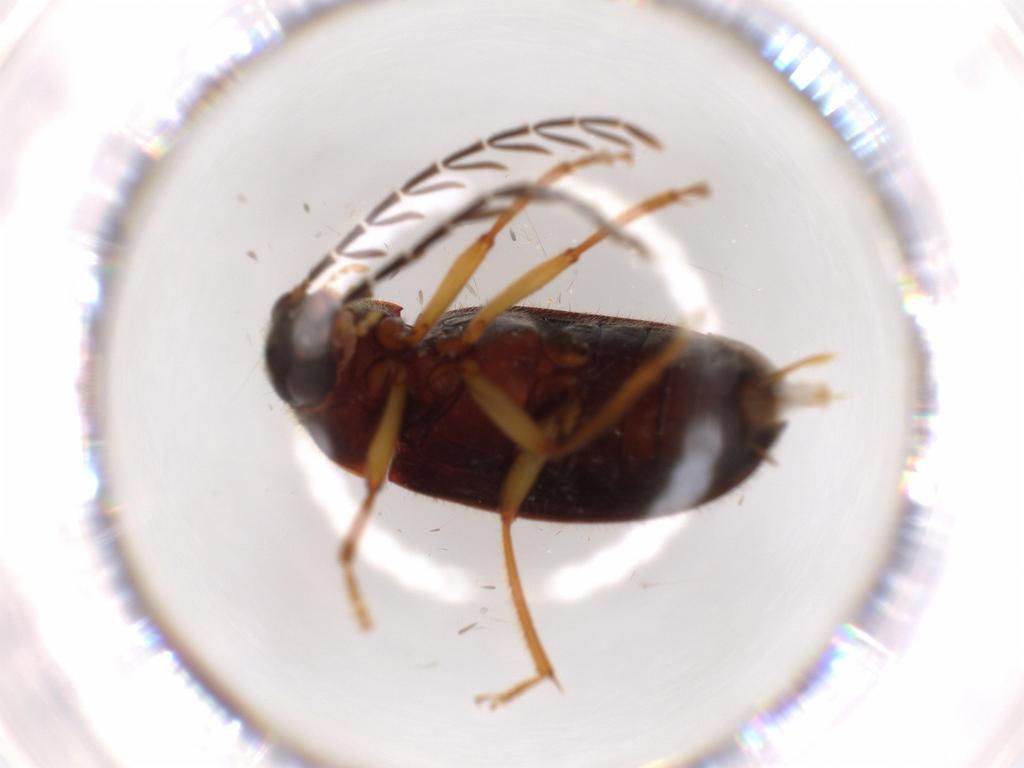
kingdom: Animalia
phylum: Arthropoda
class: Insecta
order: Coleoptera
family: Ptilodactylidae
